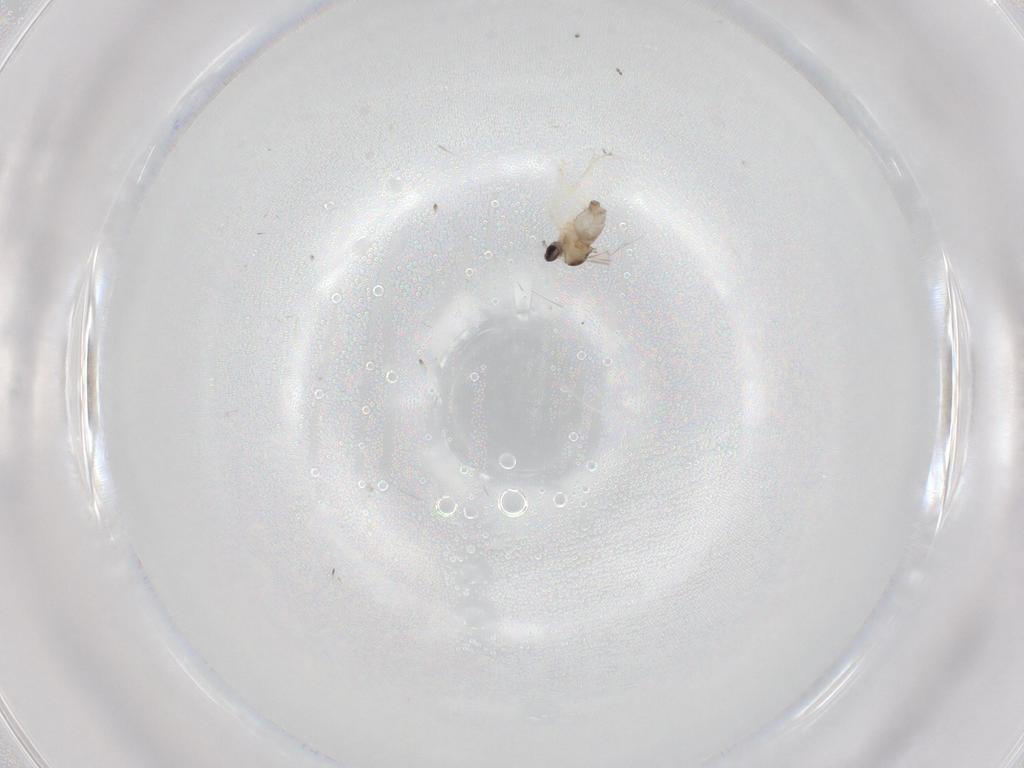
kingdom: Animalia
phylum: Arthropoda
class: Insecta
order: Diptera
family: Cecidomyiidae
